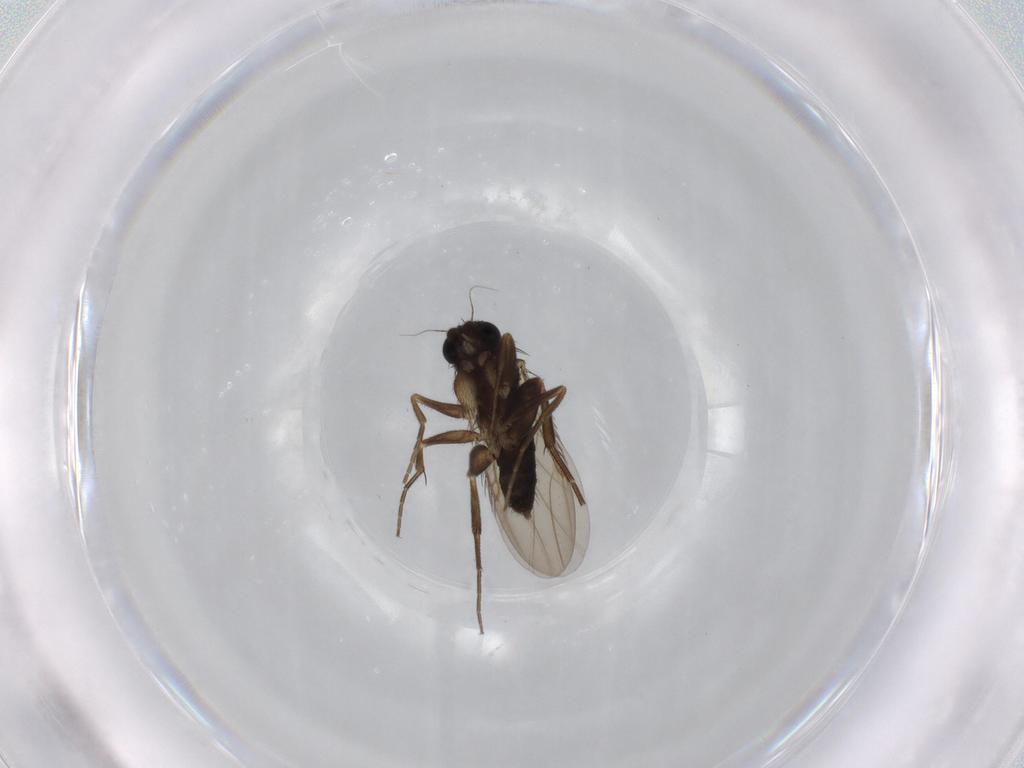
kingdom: Animalia
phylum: Arthropoda
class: Insecta
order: Diptera
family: Phoridae
